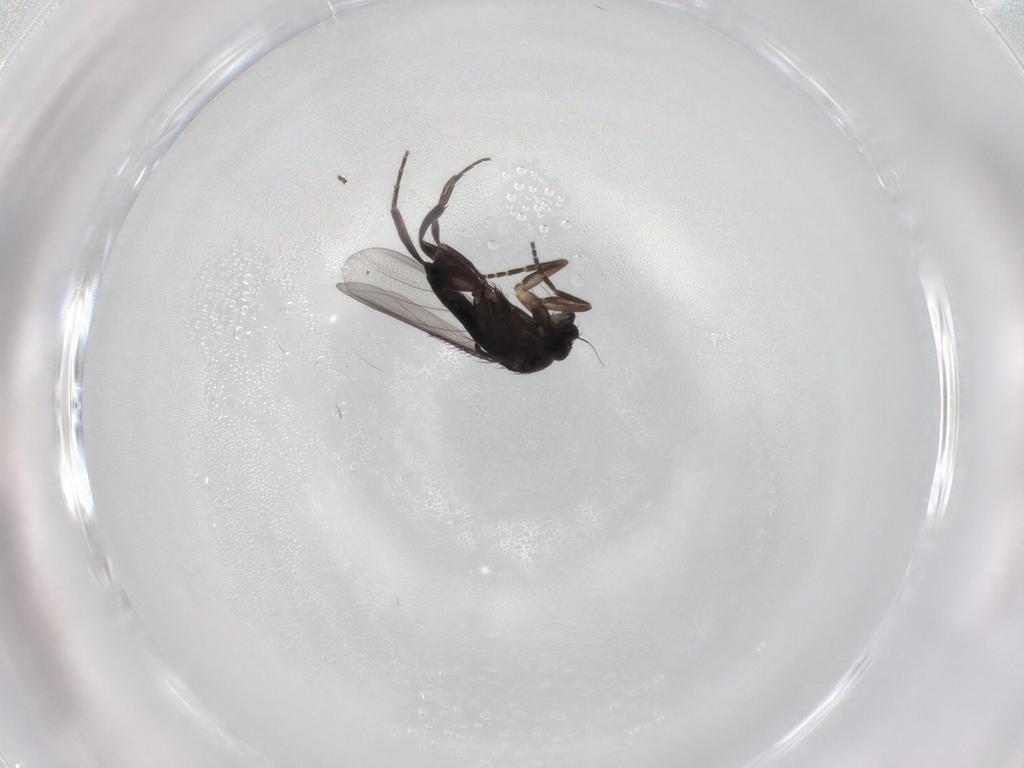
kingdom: Animalia
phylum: Arthropoda
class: Insecta
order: Diptera
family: Phoridae
